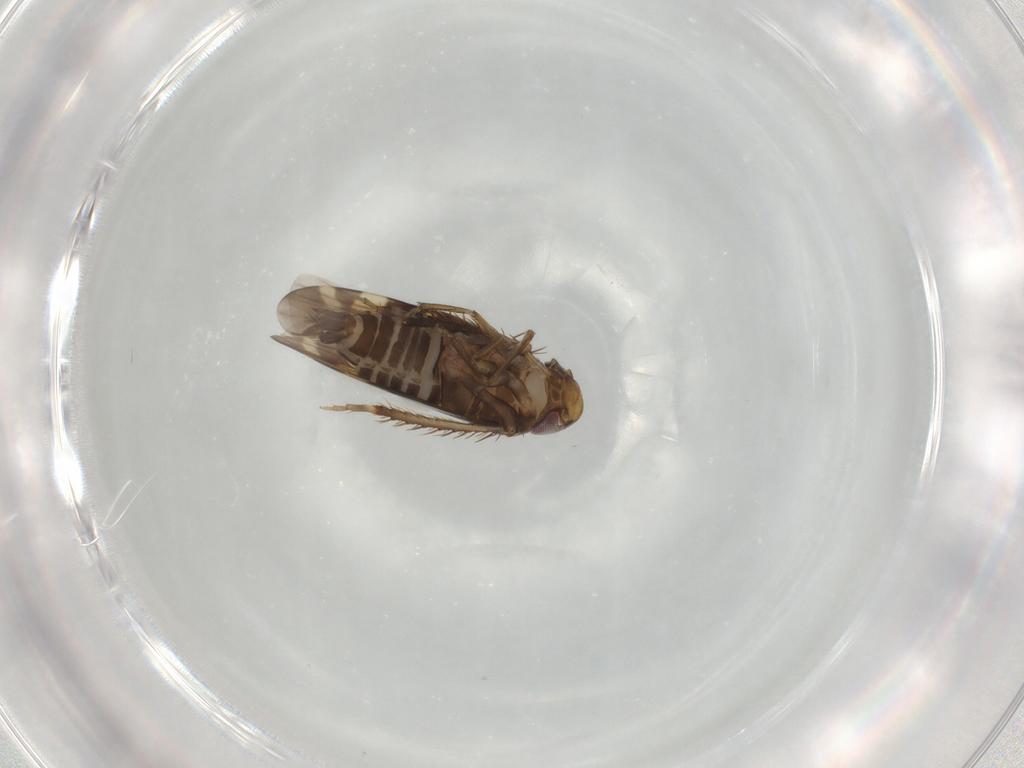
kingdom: Animalia
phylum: Arthropoda
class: Insecta
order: Hemiptera
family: Cicadellidae
